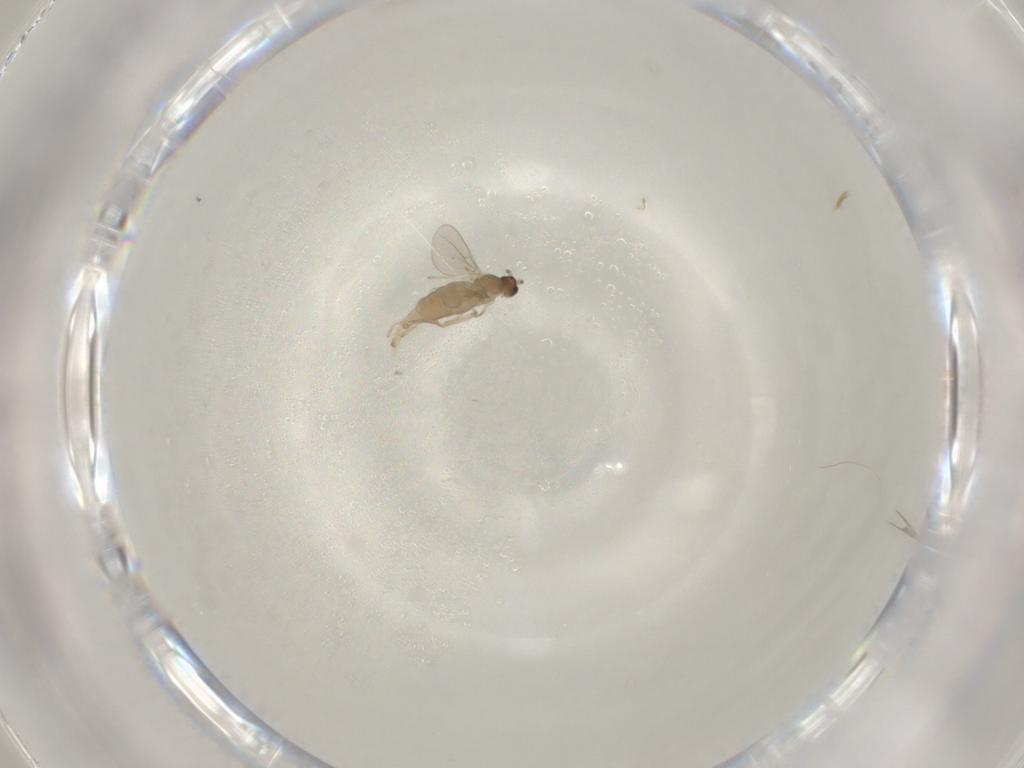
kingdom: Animalia
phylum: Arthropoda
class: Insecta
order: Diptera
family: Cecidomyiidae
